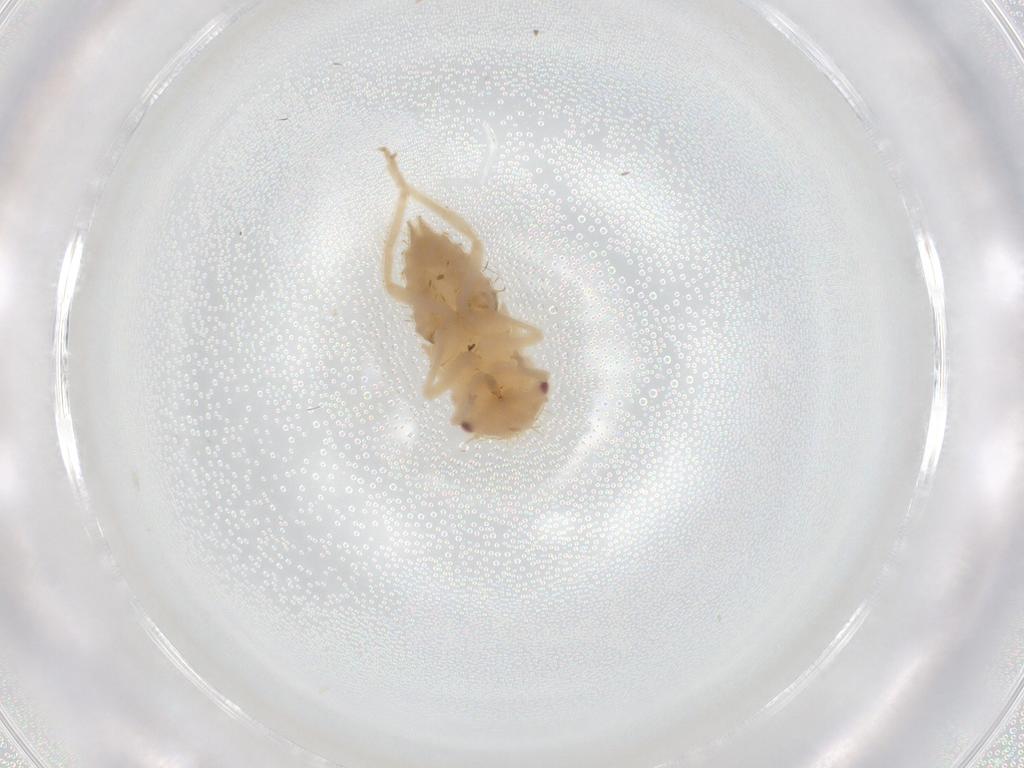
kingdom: Animalia
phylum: Arthropoda
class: Insecta
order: Hemiptera
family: Cicadellidae
